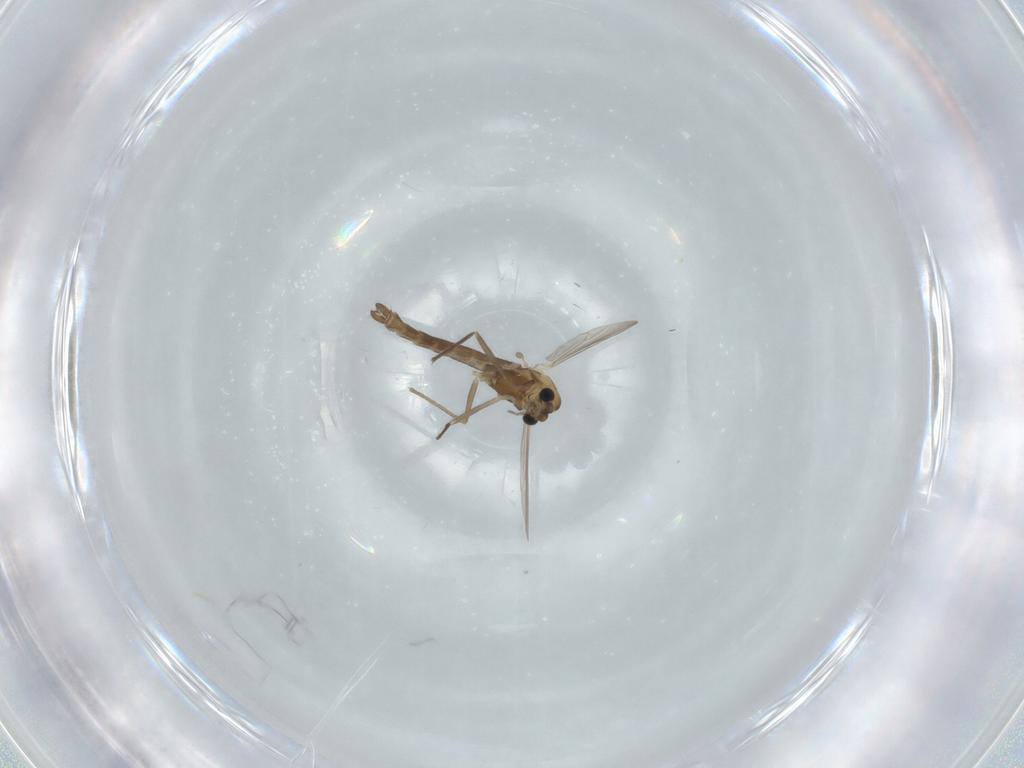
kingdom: Animalia
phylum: Arthropoda
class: Insecta
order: Diptera
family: Chironomidae
